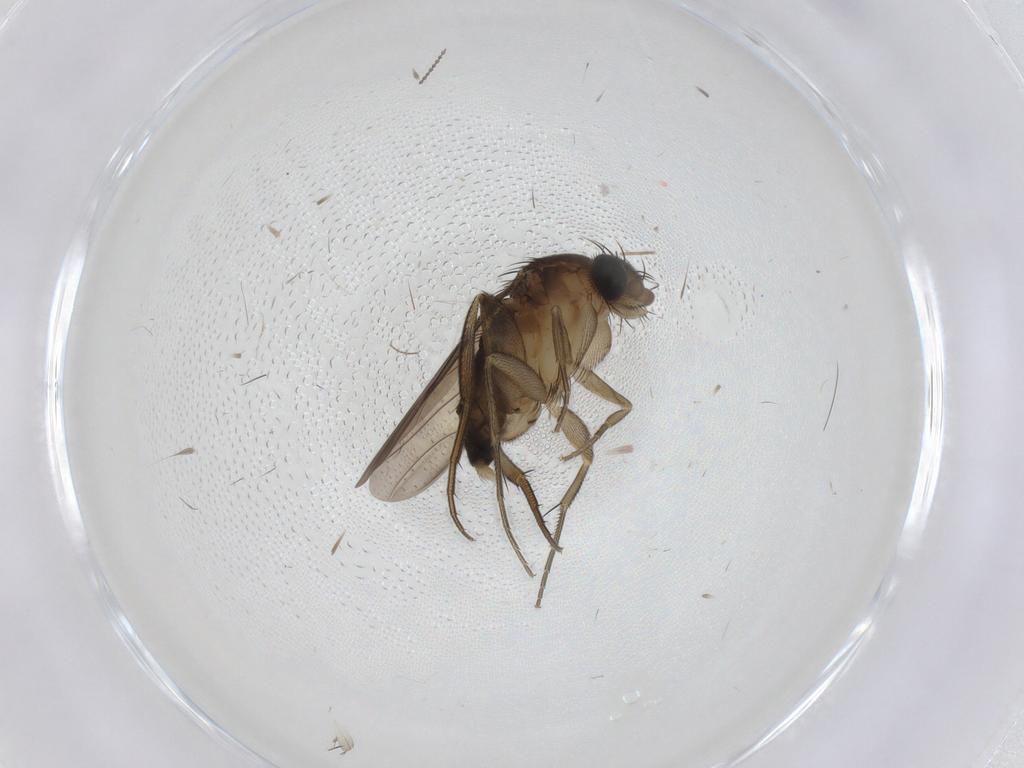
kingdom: Animalia
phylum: Arthropoda
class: Insecta
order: Diptera
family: Phoridae
